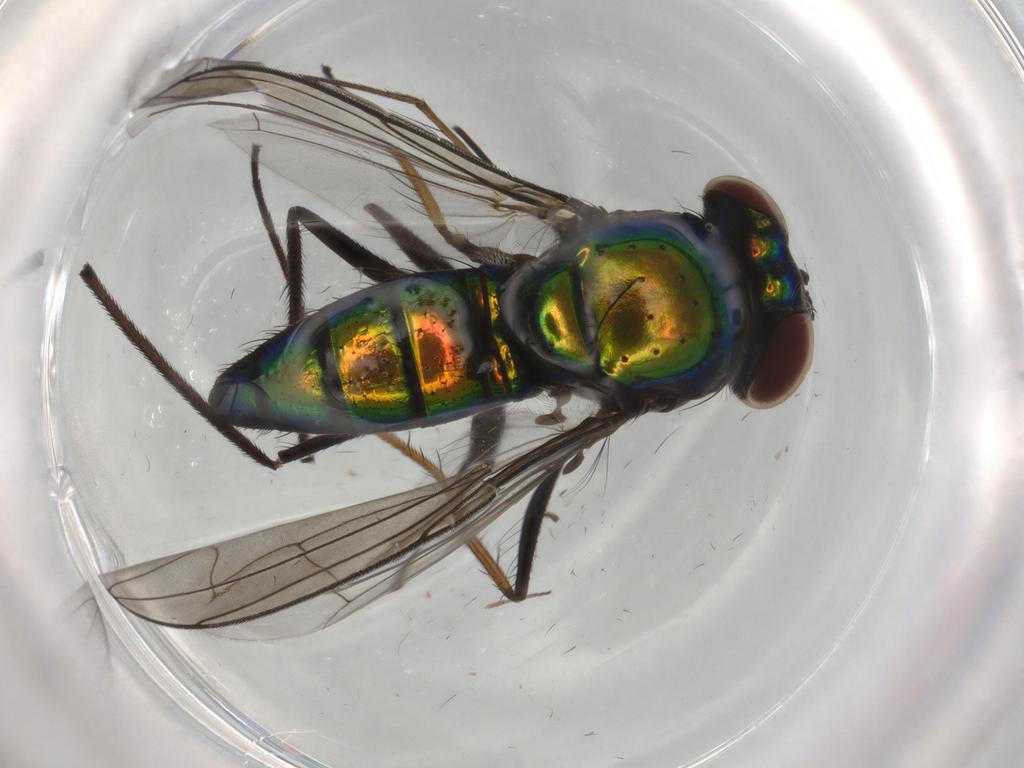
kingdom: Animalia
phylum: Arthropoda
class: Insecta
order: Diptera
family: Dolichopodidae
